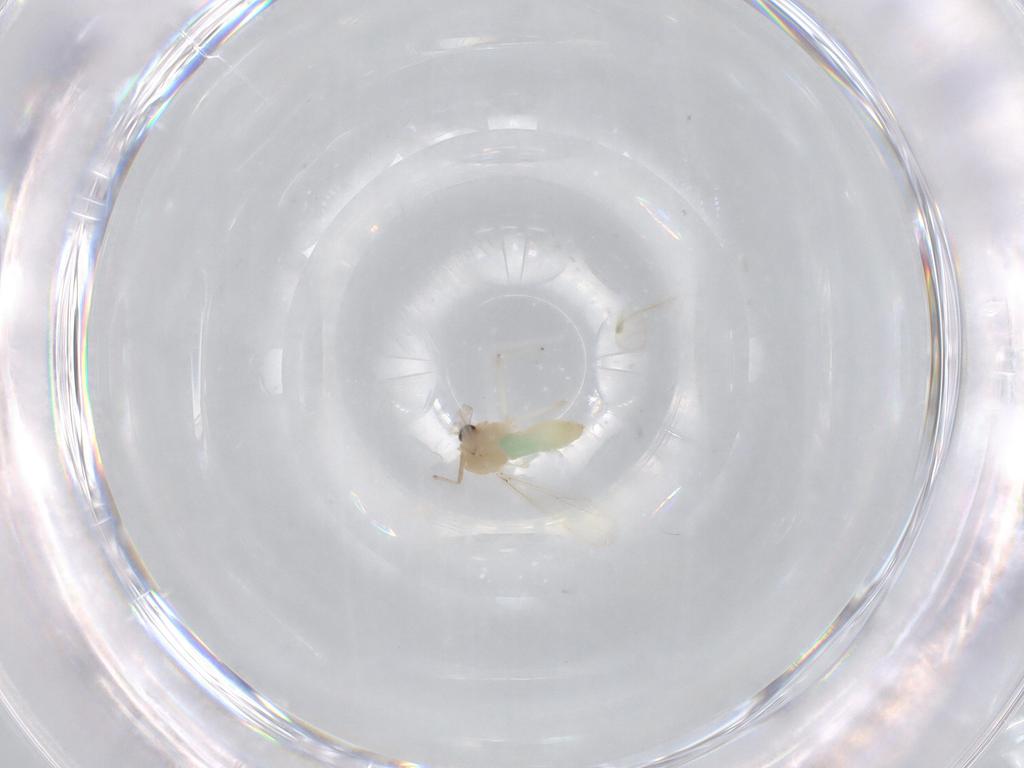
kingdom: Animalia
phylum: Arthropoda
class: Insecta
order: Diptera
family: Chironomidae
